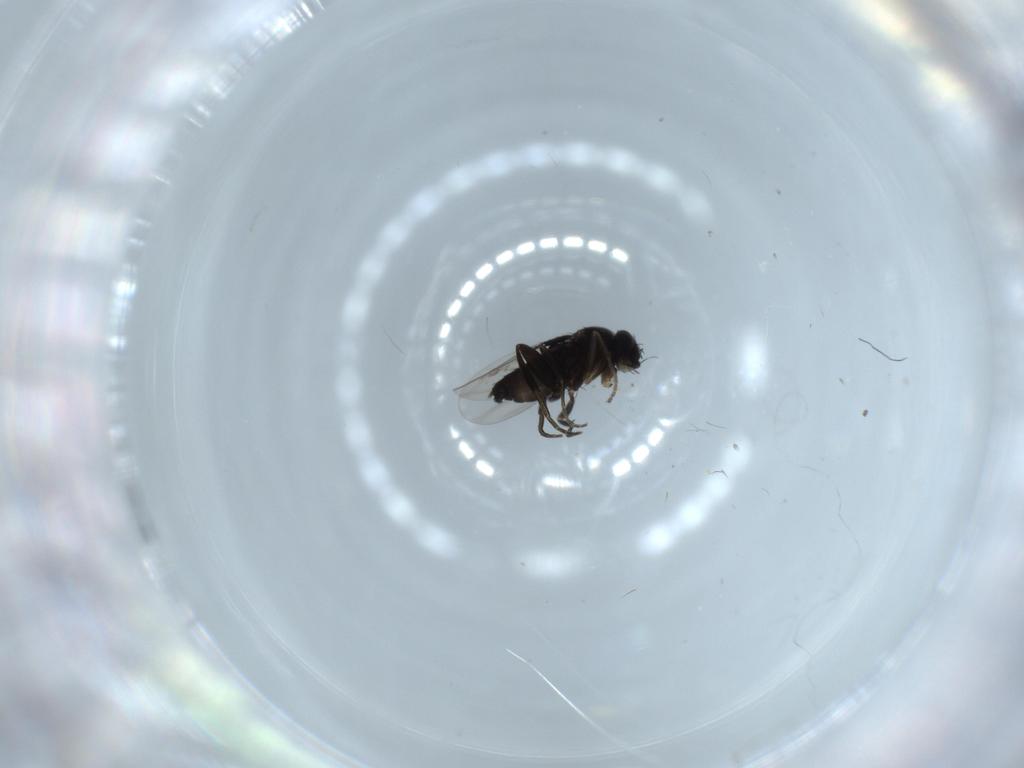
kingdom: Animalia
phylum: Arthropoda
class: Insecta
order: Diptera
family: Phoridae
